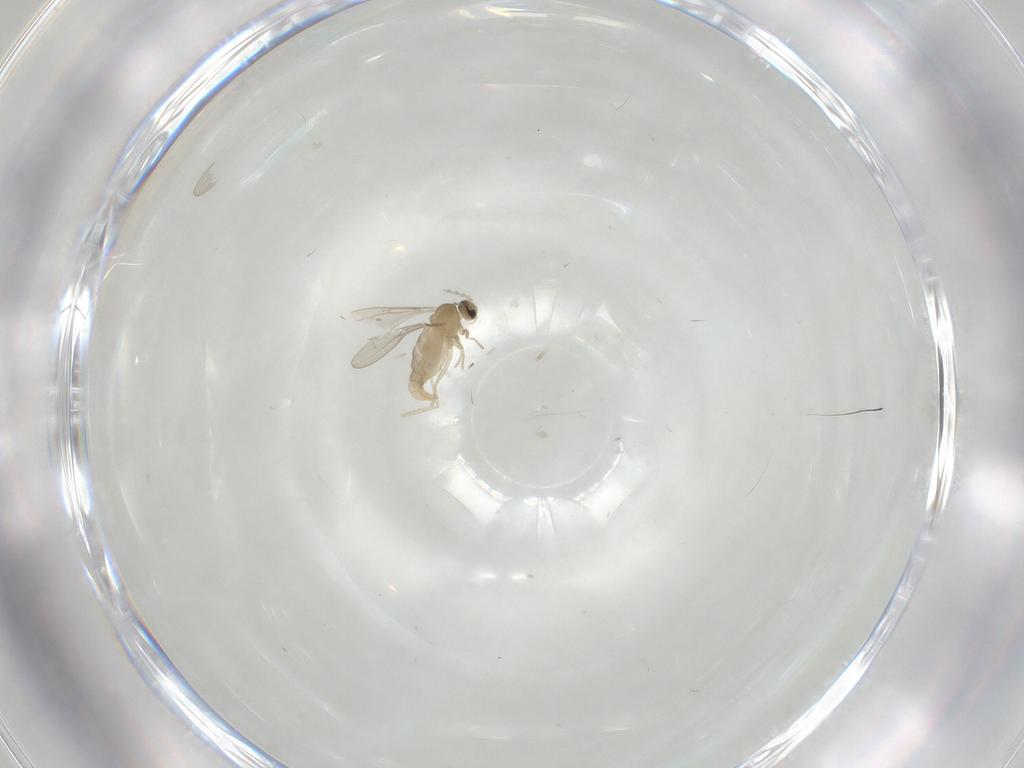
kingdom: Animalia
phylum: Arthropoda
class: Insecta
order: Diptera
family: Cecidomyiidae
